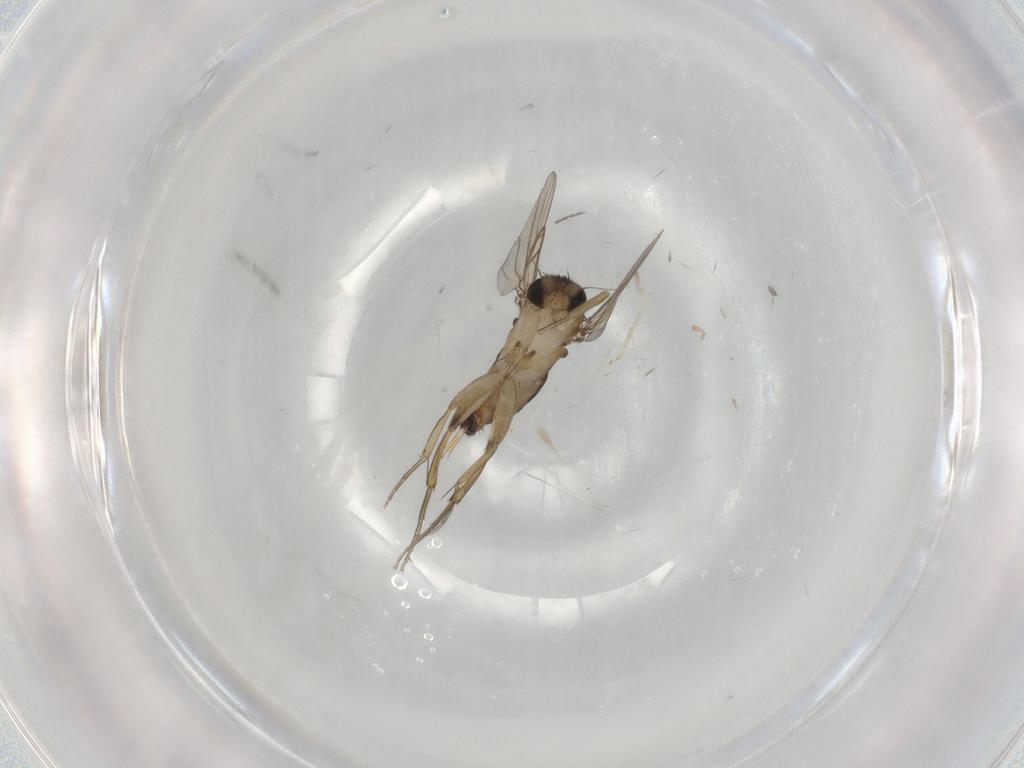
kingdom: Animalia
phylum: Arthropoda
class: Insecta
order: Diptera
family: Phoridae
